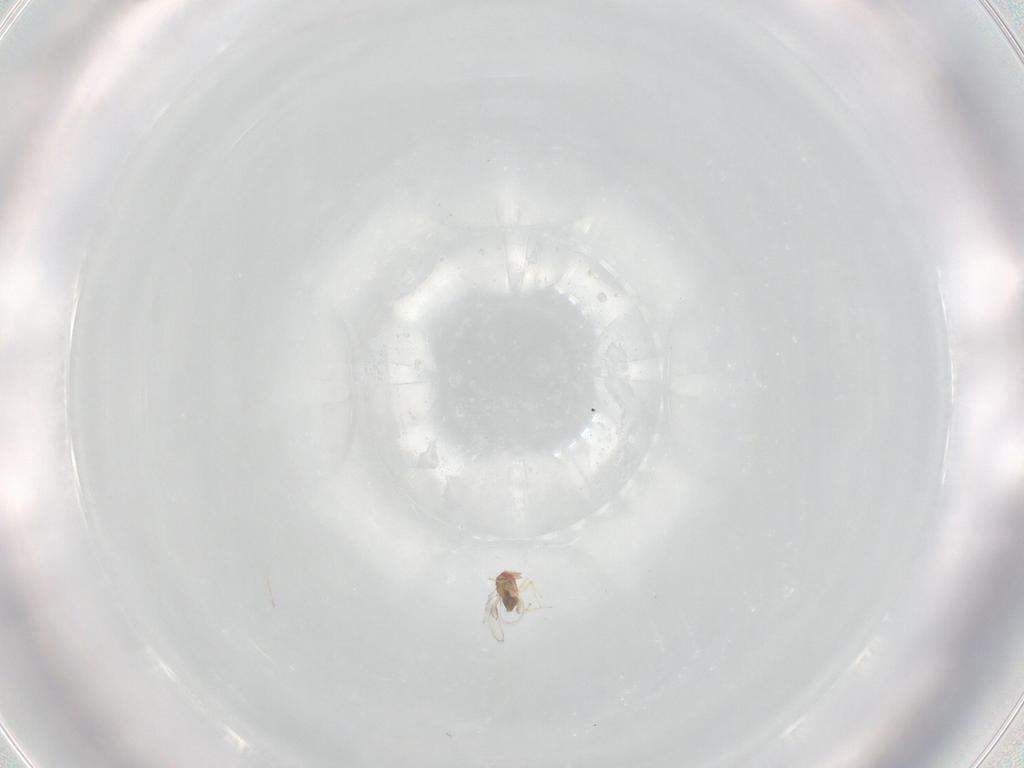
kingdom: Animalia
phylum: Arthropoda
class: Insecta
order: Hymenoptera
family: Trichogrammatidae
